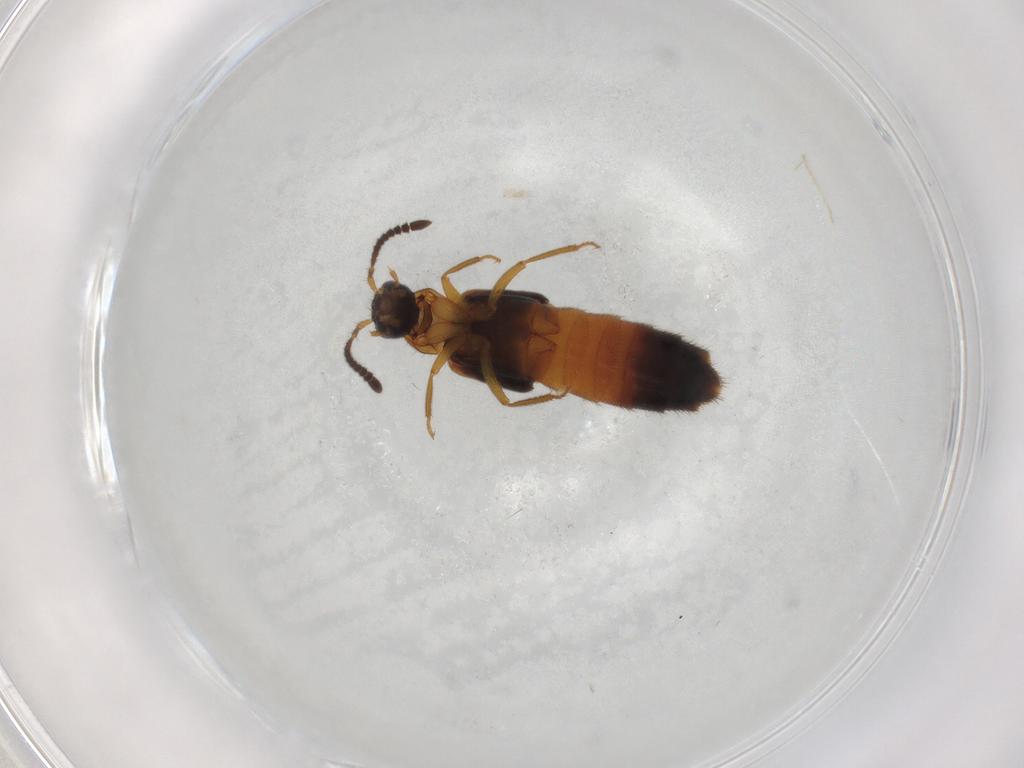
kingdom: Animalia
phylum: Arthropoda
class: Insecta
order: Coleoptera
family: Staphylinidae
